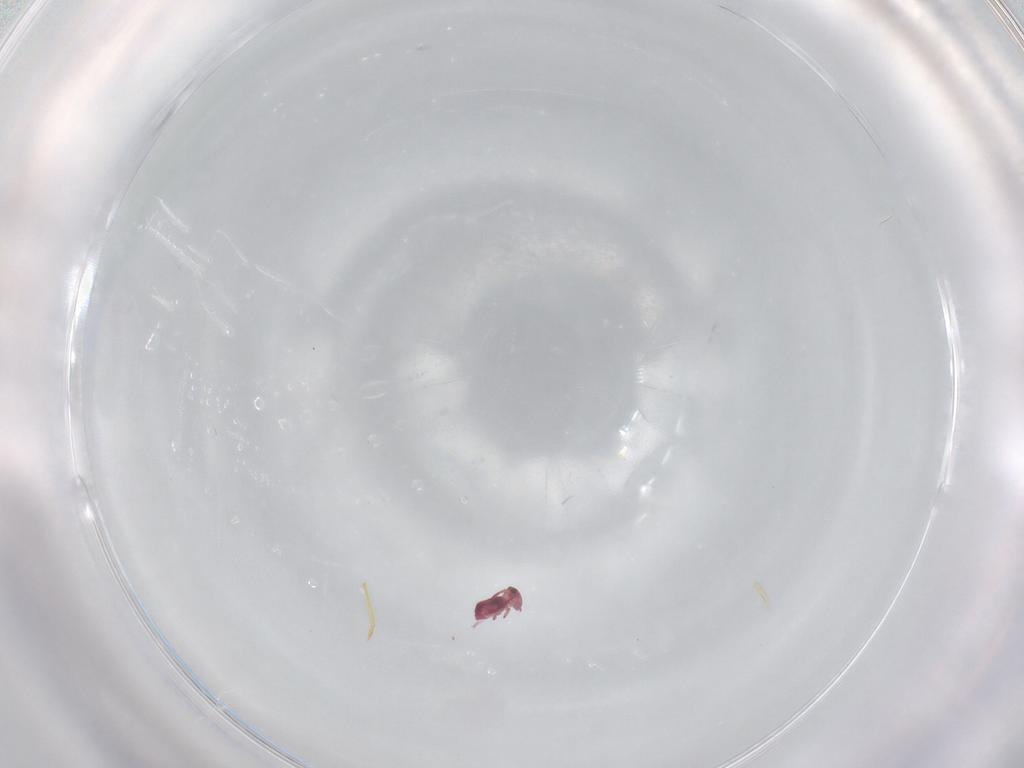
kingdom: Animalia
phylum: Arthropoda
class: Collembola
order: Symphypleona
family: Sminthurididae
